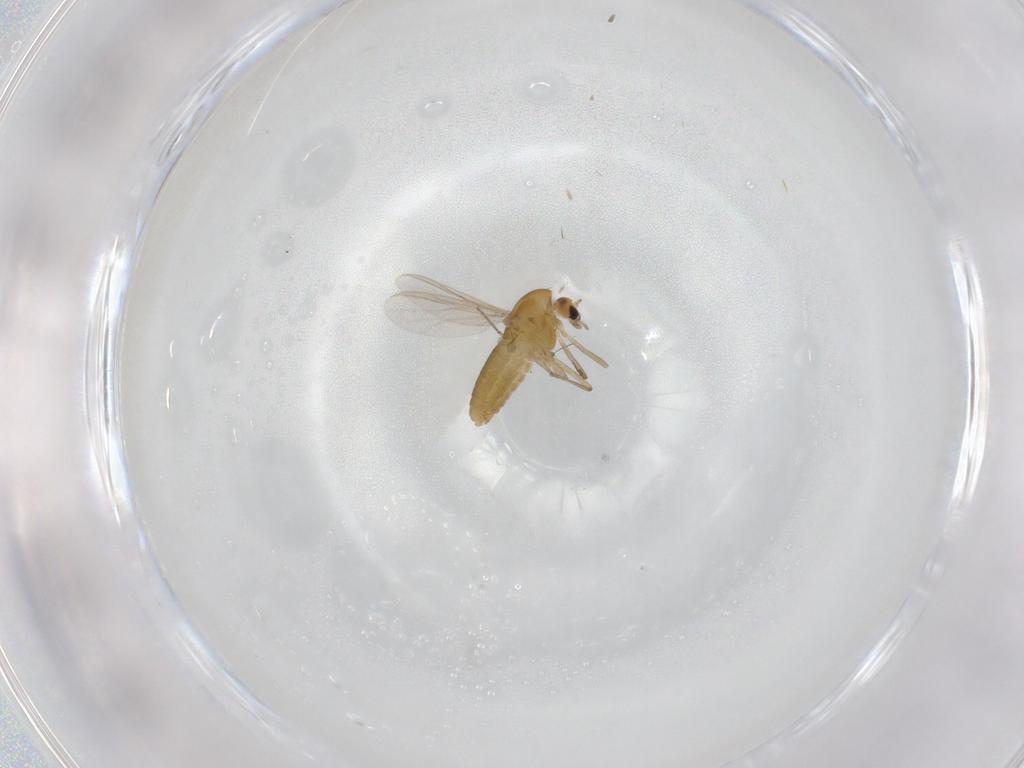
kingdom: Animalia
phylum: Arthropoda
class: Insecta
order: Diptera
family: Chironomidae
